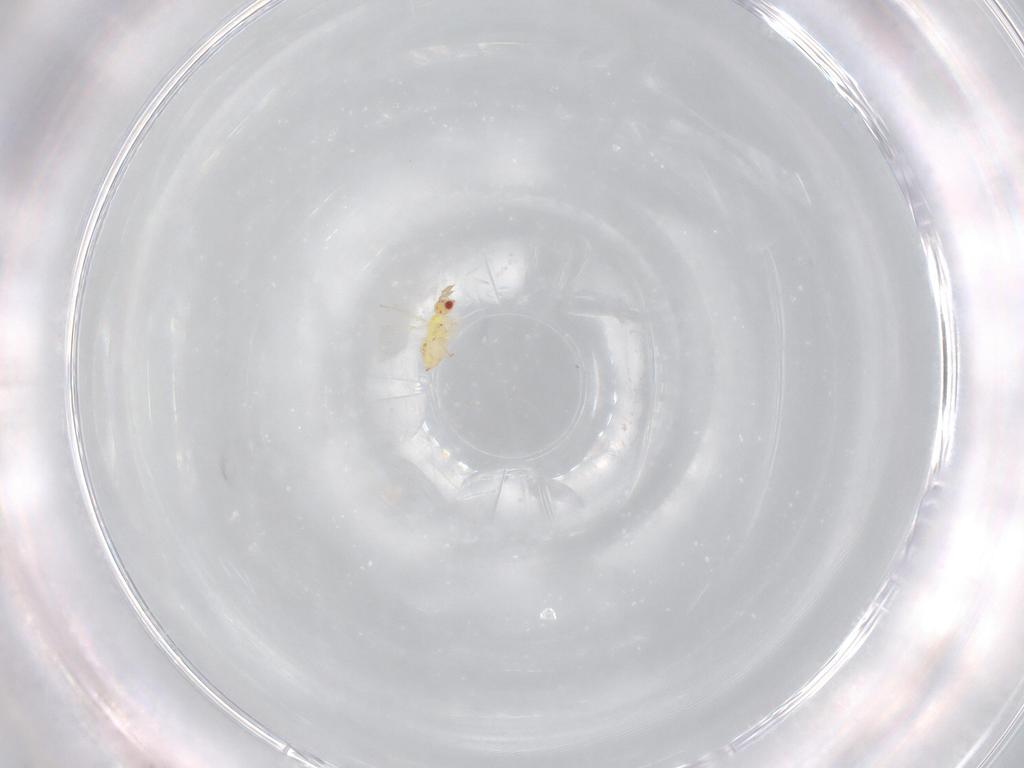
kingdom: Animalia
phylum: Arthropoda
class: Insecta
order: Hymenoptera
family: Trichogrammatidae
